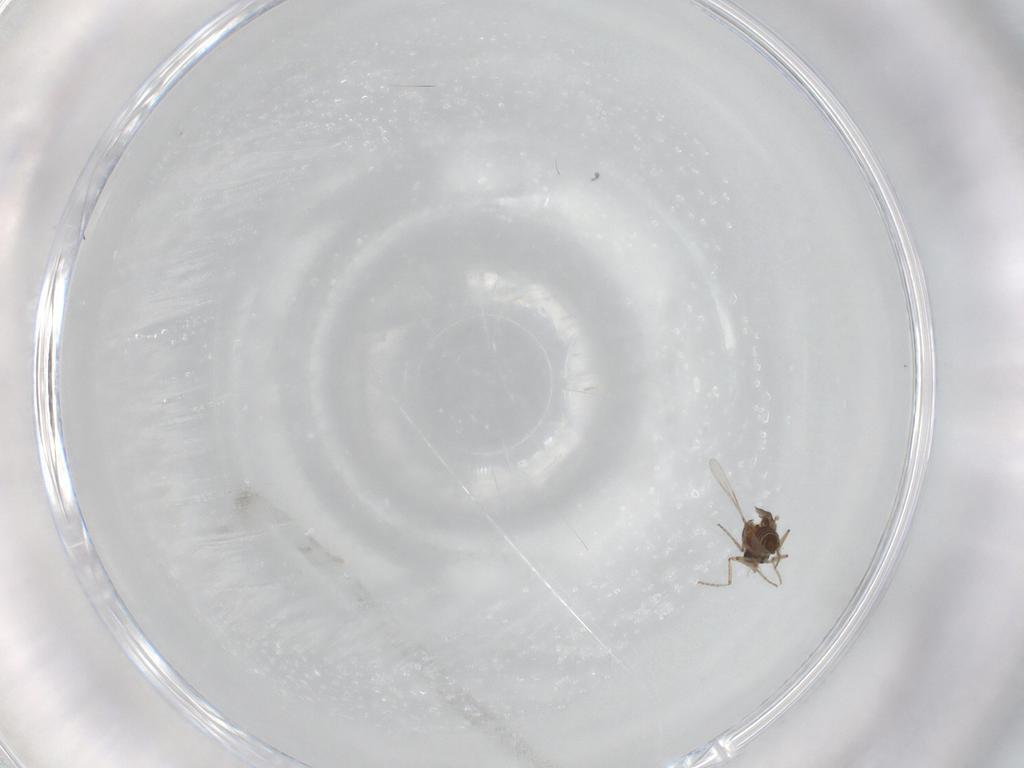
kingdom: Animalia
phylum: Arthropoda
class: Insecta
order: Diptera
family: Ceratopogonidae
